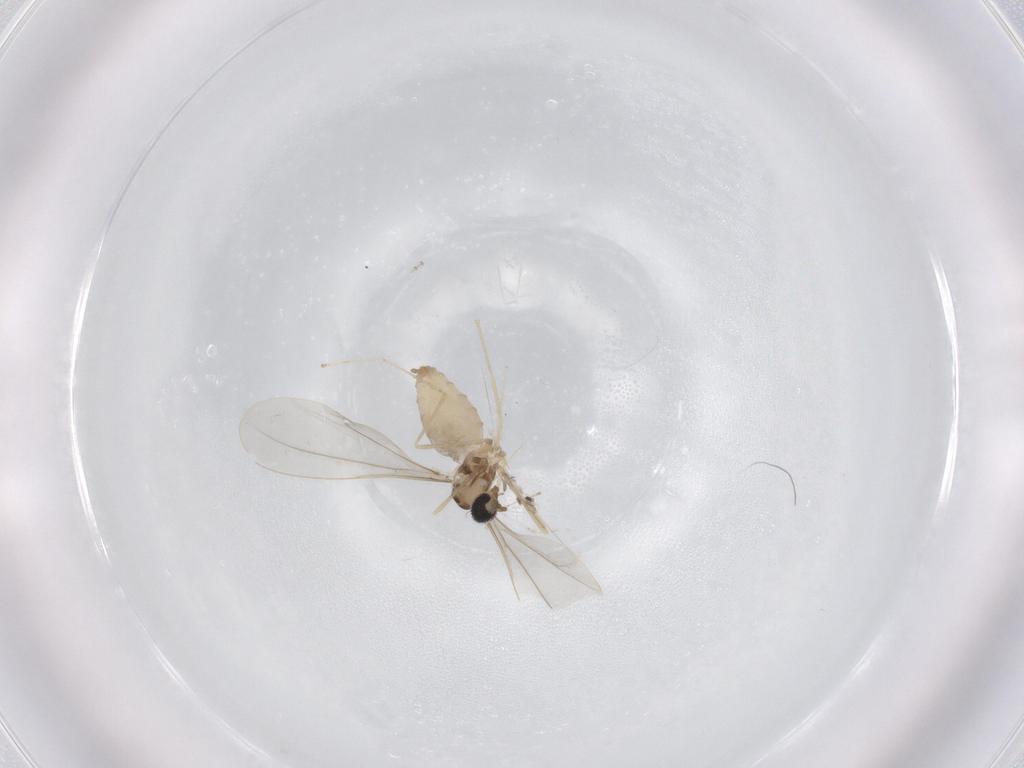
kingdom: Animalia
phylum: Arthropoda
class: Insecta
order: Diptera
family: Cecidomyiidae
